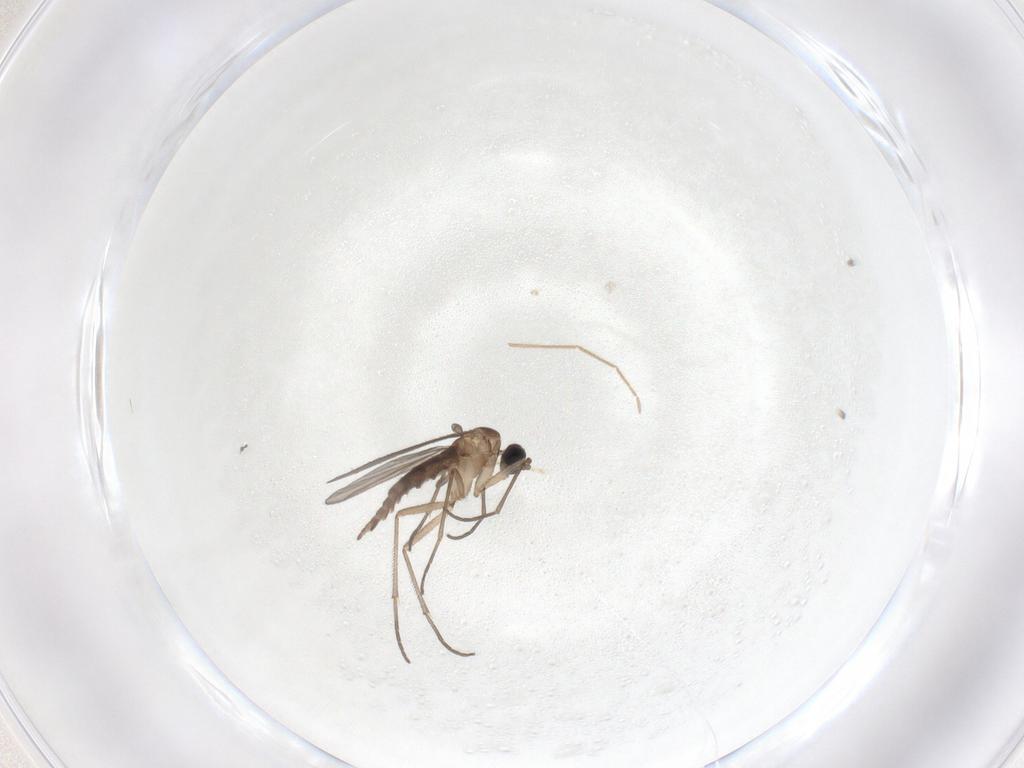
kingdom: Animalia
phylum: Arthropoda
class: Insecta
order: Diptera
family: Sciaridae
